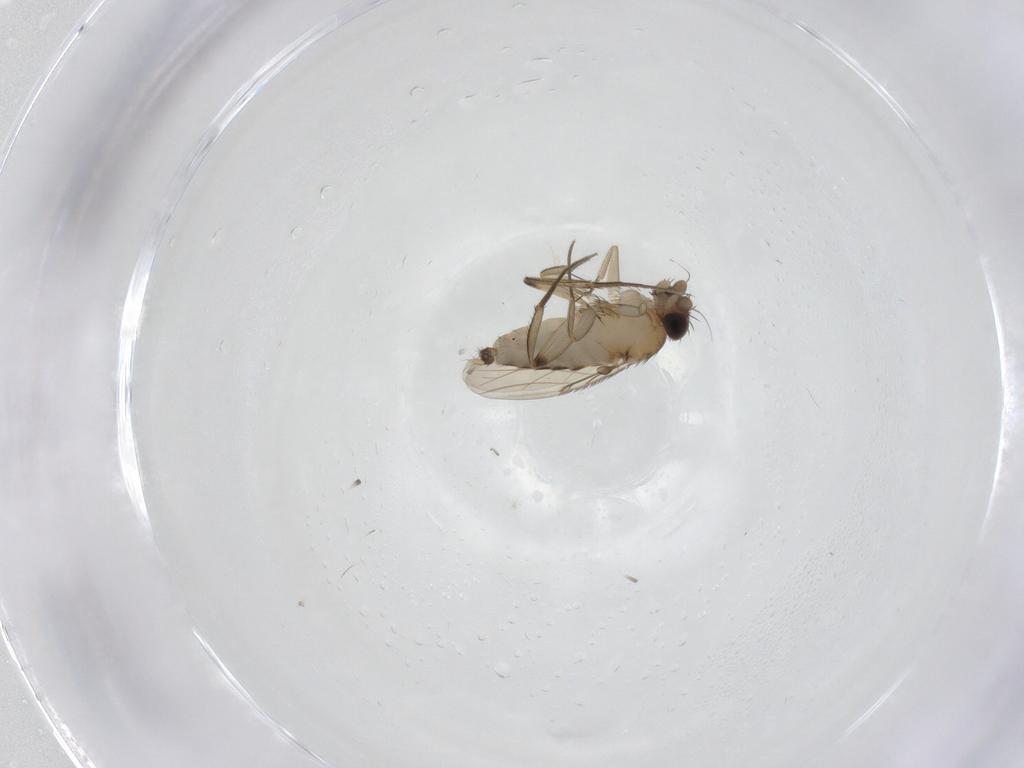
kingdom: Animalia
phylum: Arthropoda
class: Insecta
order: Diptera
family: Phoridae
